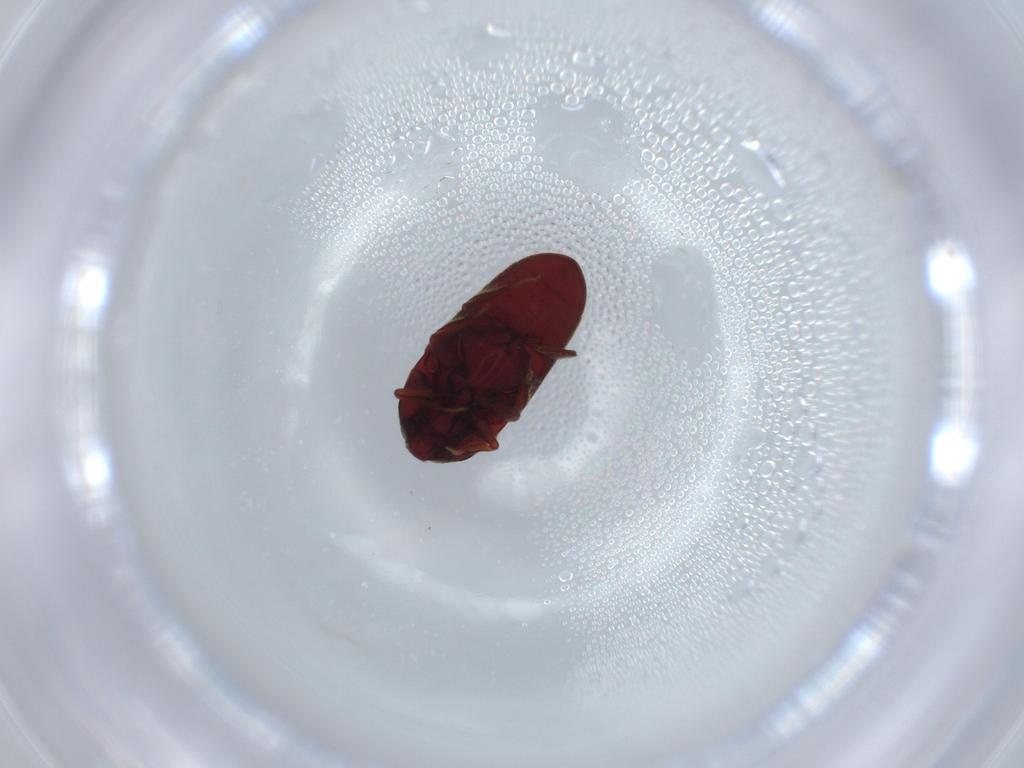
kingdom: Animalia
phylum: Arthropoda
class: Insecta
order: Coleoptera
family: Throscidae
